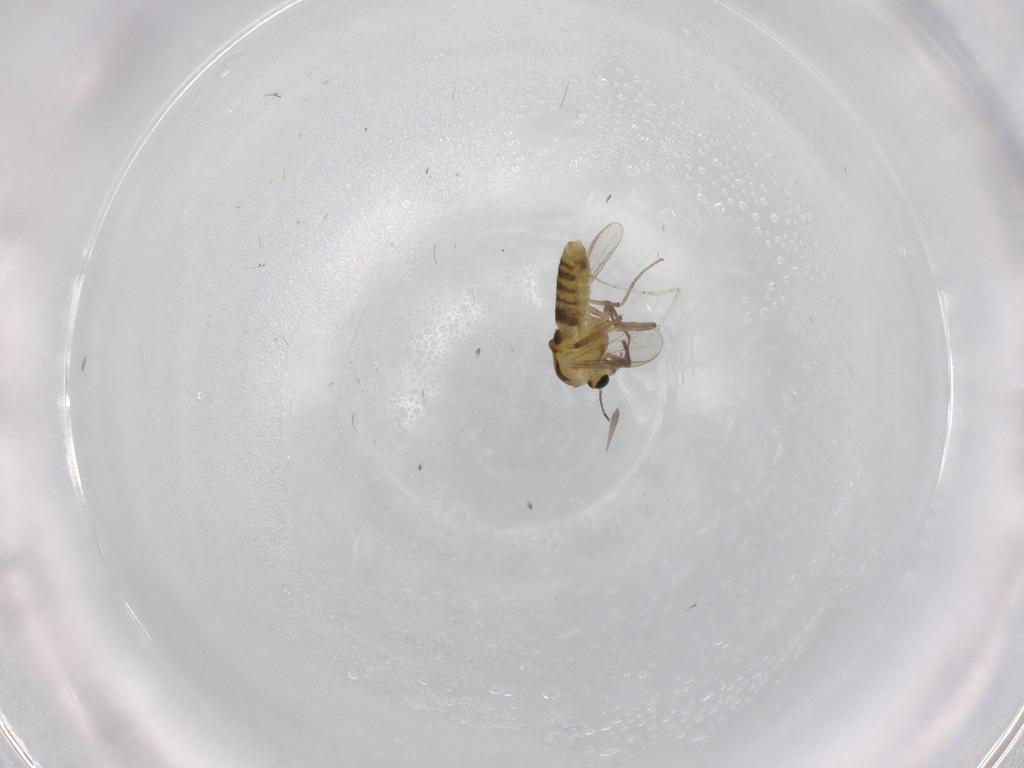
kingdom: Animalia
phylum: Arthropoda
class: Insecta
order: Diptera
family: Chironomidae
